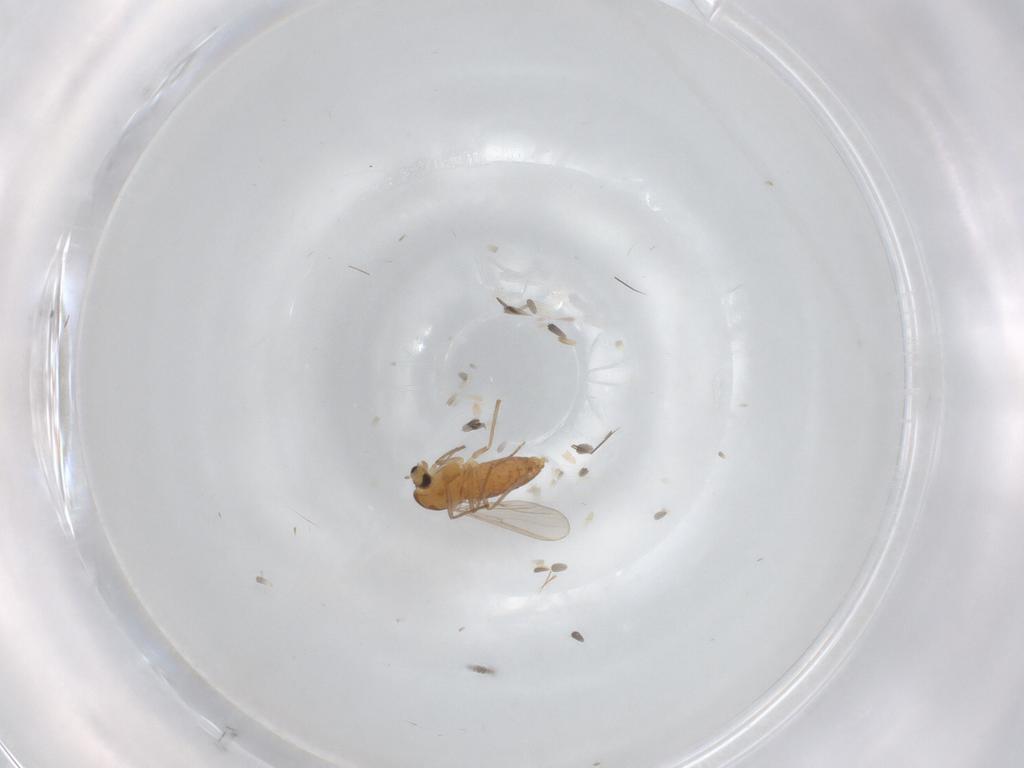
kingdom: Animalia
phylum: Arthropoda
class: Insecta
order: Diptera
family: Chironomidae
